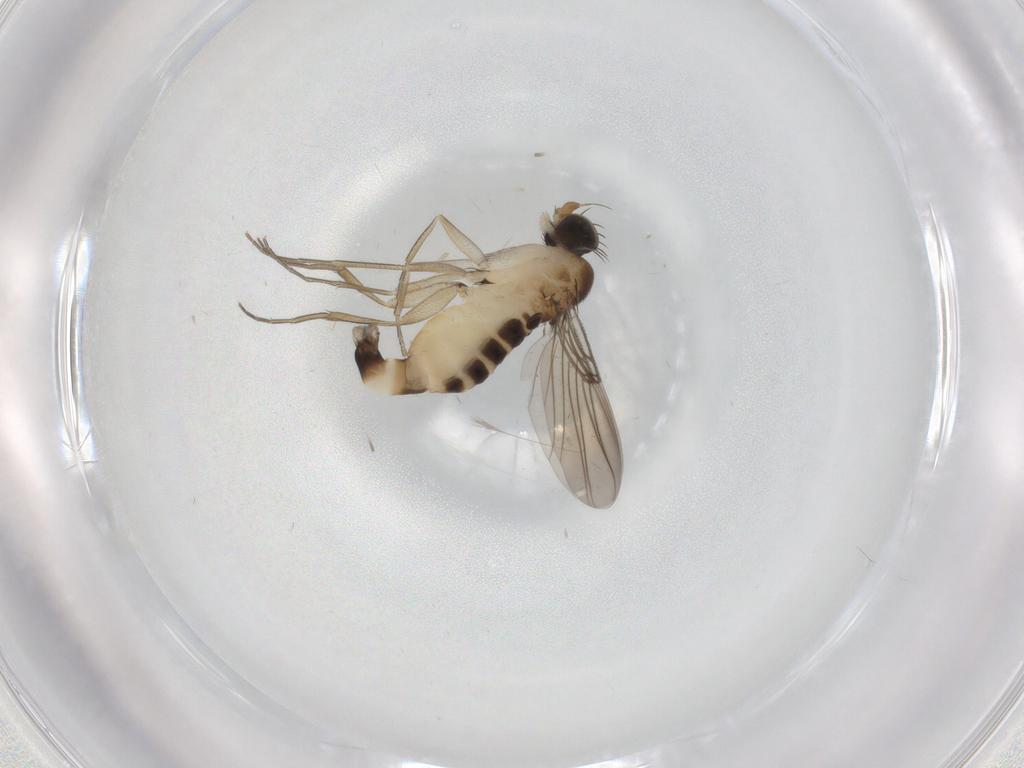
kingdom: Animalia
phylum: Arthropoda
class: Insecta
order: Diptera
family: Phoridae
